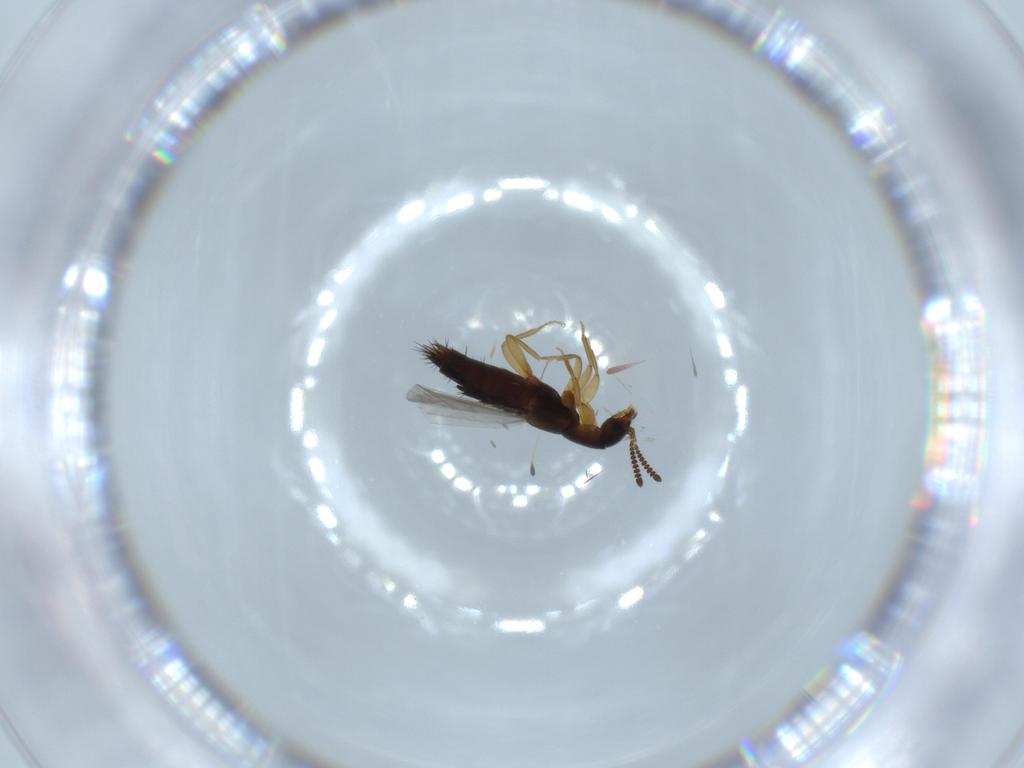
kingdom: Animalia
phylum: Arthropoda
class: Insecta
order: Coleoptera
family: Staphylinidae
